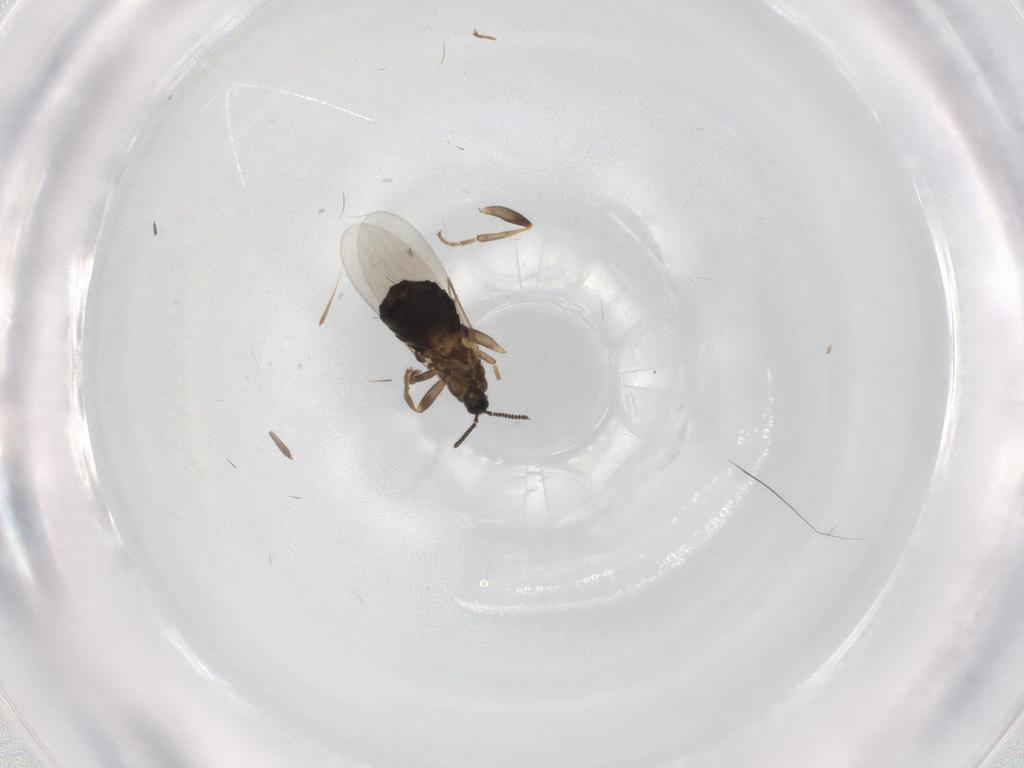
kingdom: Animalia
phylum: Arthropoda
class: Insecta
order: Diptera
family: Scatopsidae
